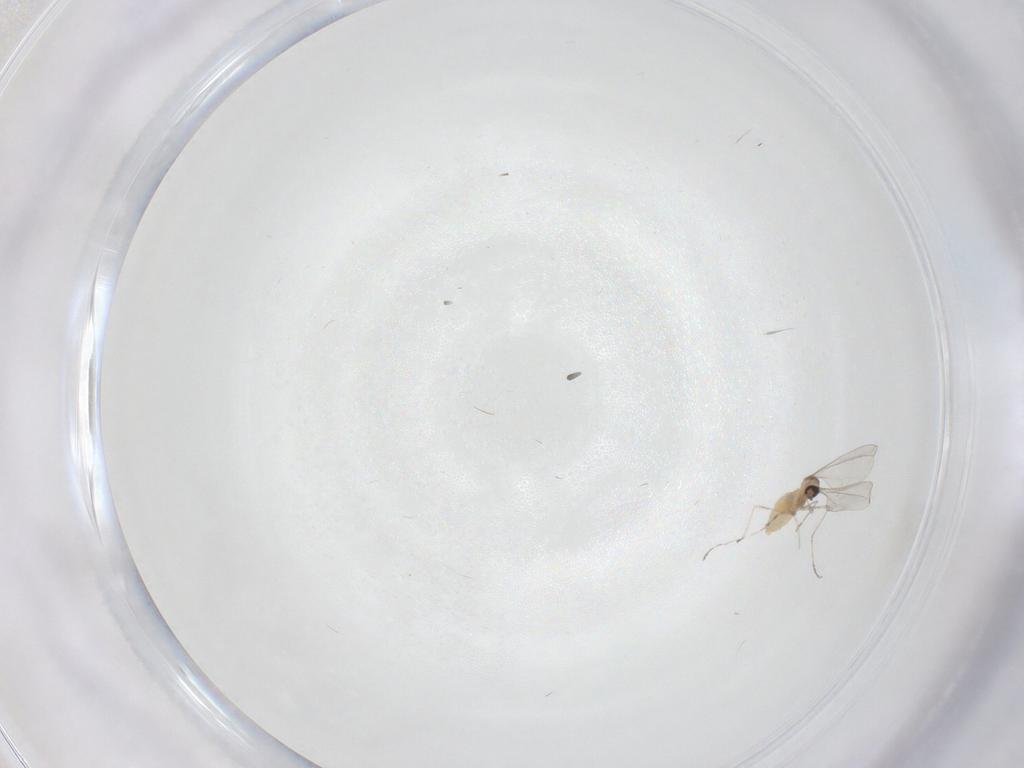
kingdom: Animalia
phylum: Arthropoda
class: Insecta
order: Diptera
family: Cecidomyiidae
